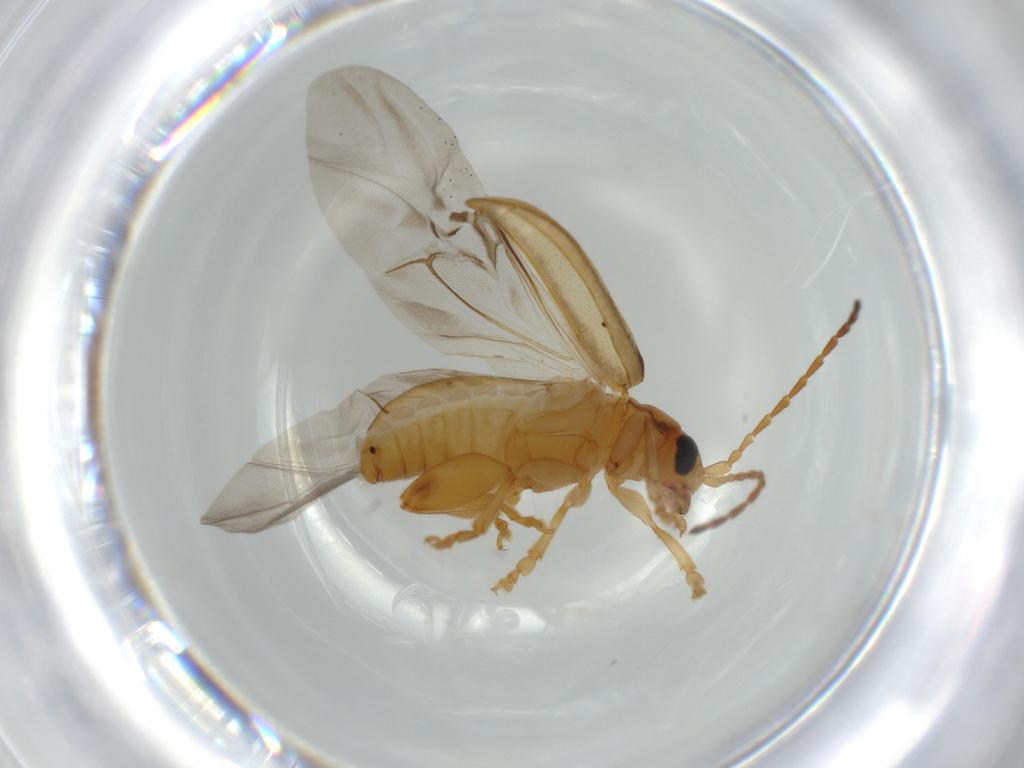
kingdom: Animalia
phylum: Arthropoda
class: Insecta
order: Coleoptera
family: Chrysomelidae
